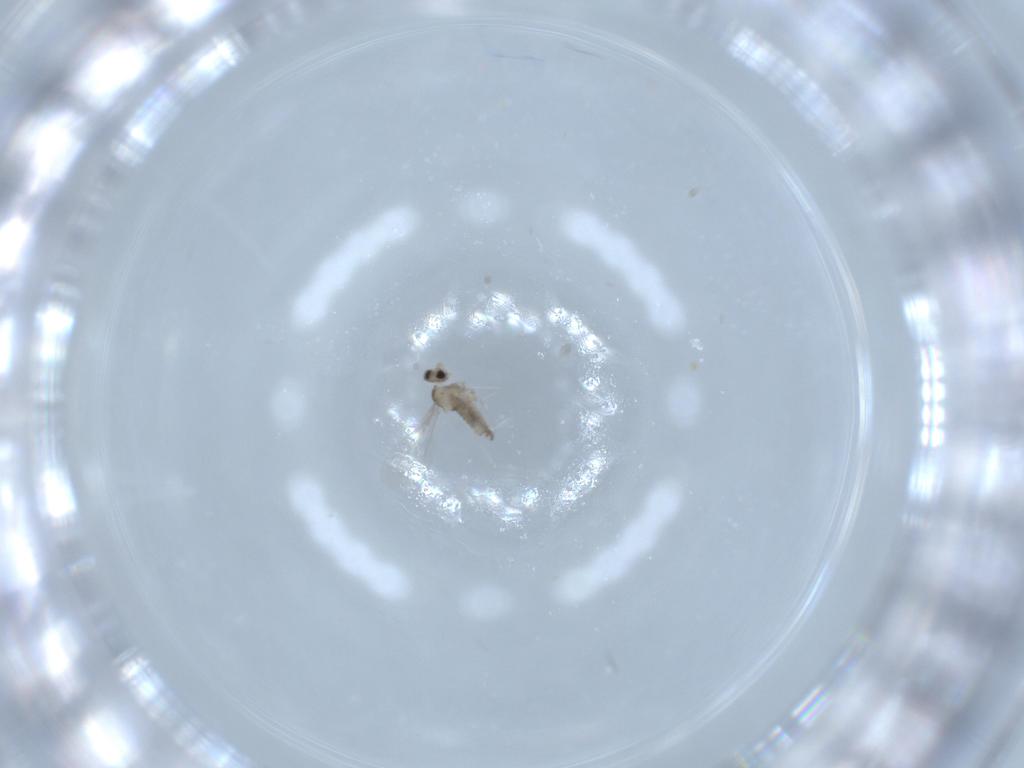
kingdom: Animalia
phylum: Arthropoda
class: Insecta
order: Diptera
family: Cecidomyiidae
